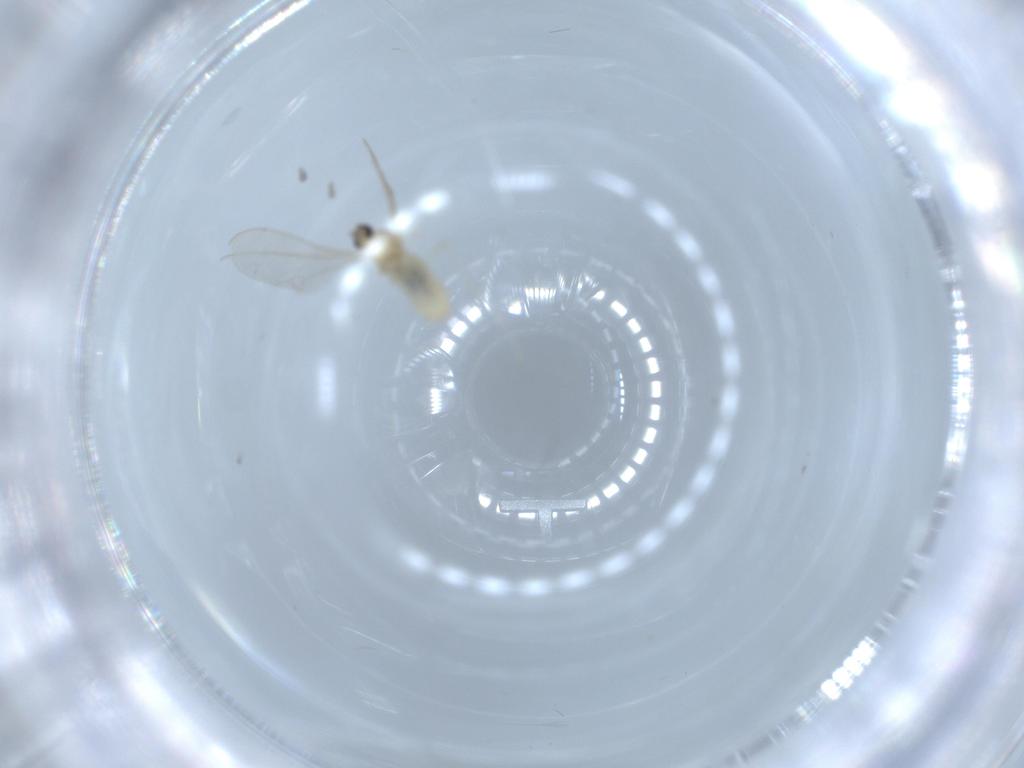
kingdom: Animalia
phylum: Arthropoda
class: Insecta
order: Diptera
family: Cecidomyiidae
